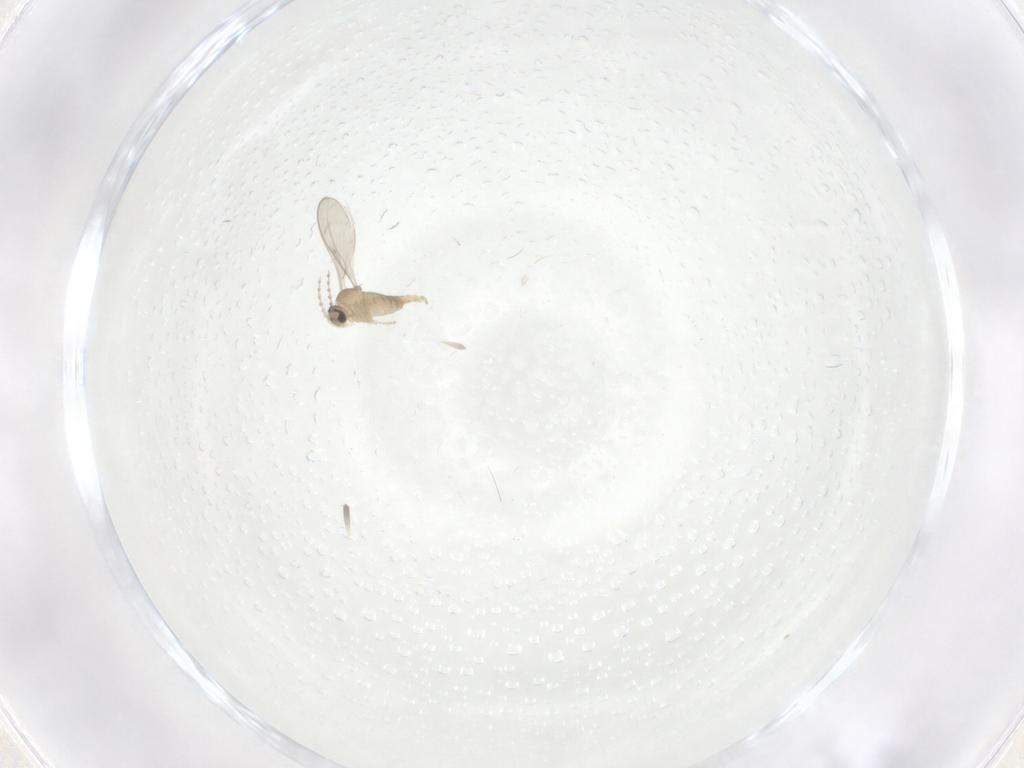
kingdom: Animalia
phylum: Arthropoda
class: Insecta
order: Diptera
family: Cecidomyiidae
